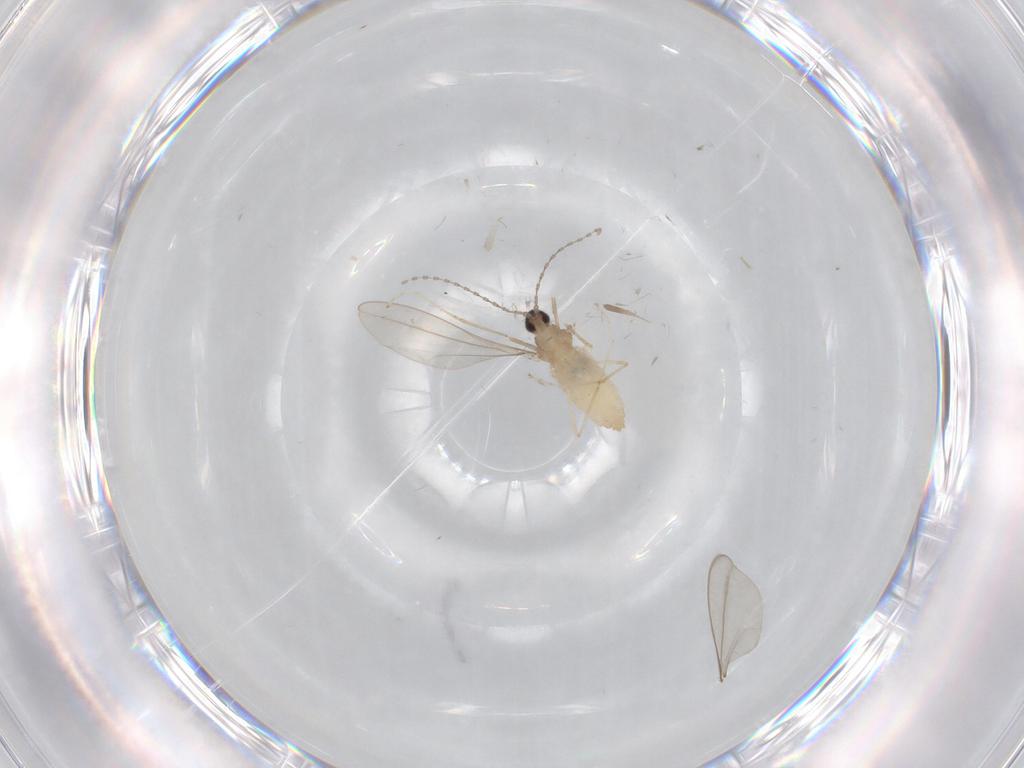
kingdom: Animalia
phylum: Arthropoda
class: Insecta
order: Diptera
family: Cecidomyiidae
